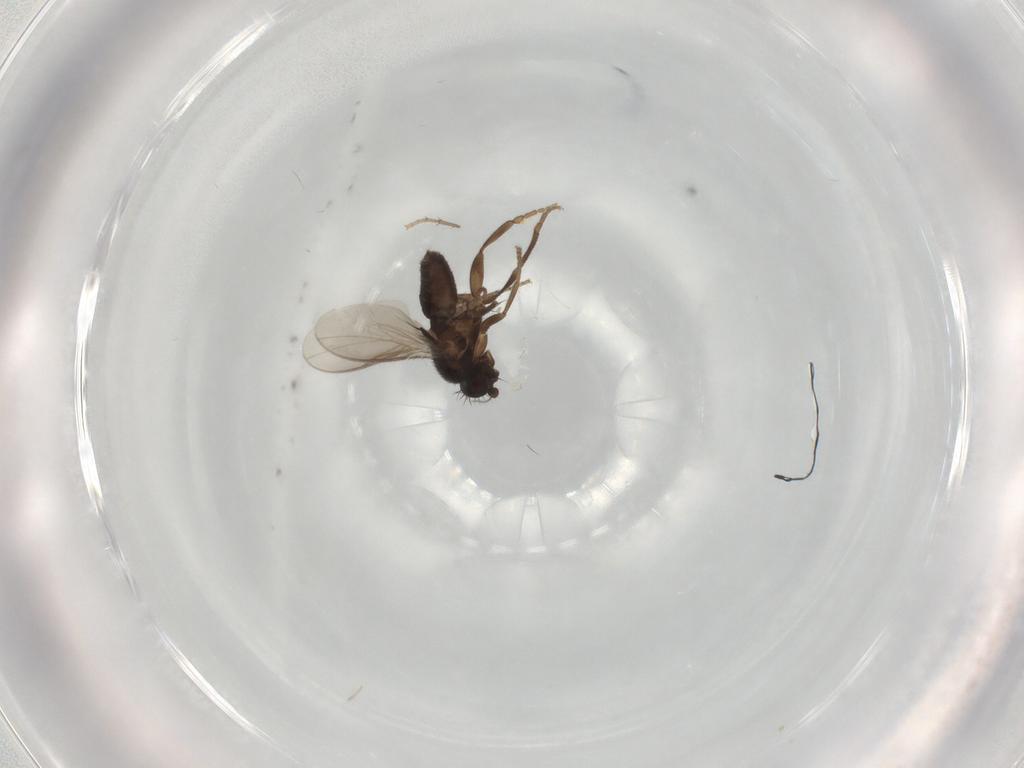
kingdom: Animalia
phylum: Arthropoda
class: Insecta
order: Diptera
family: Sphaeroceridae
